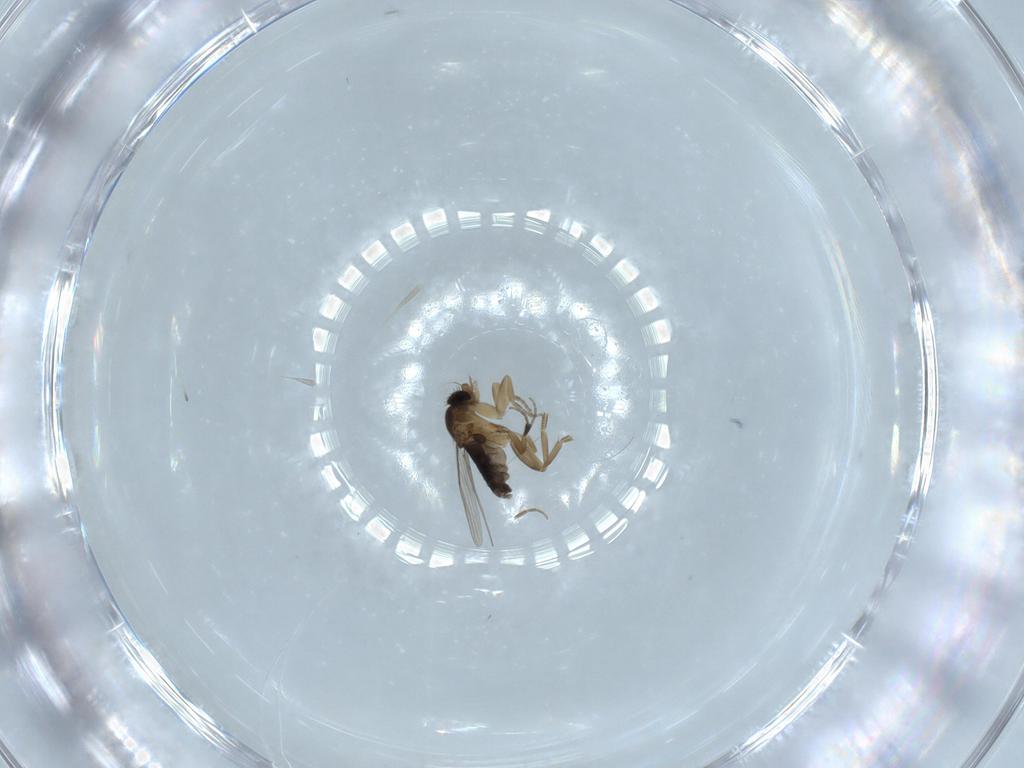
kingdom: Animalia
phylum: Arthropoda
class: Insecta
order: Diptera
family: Phoridae
